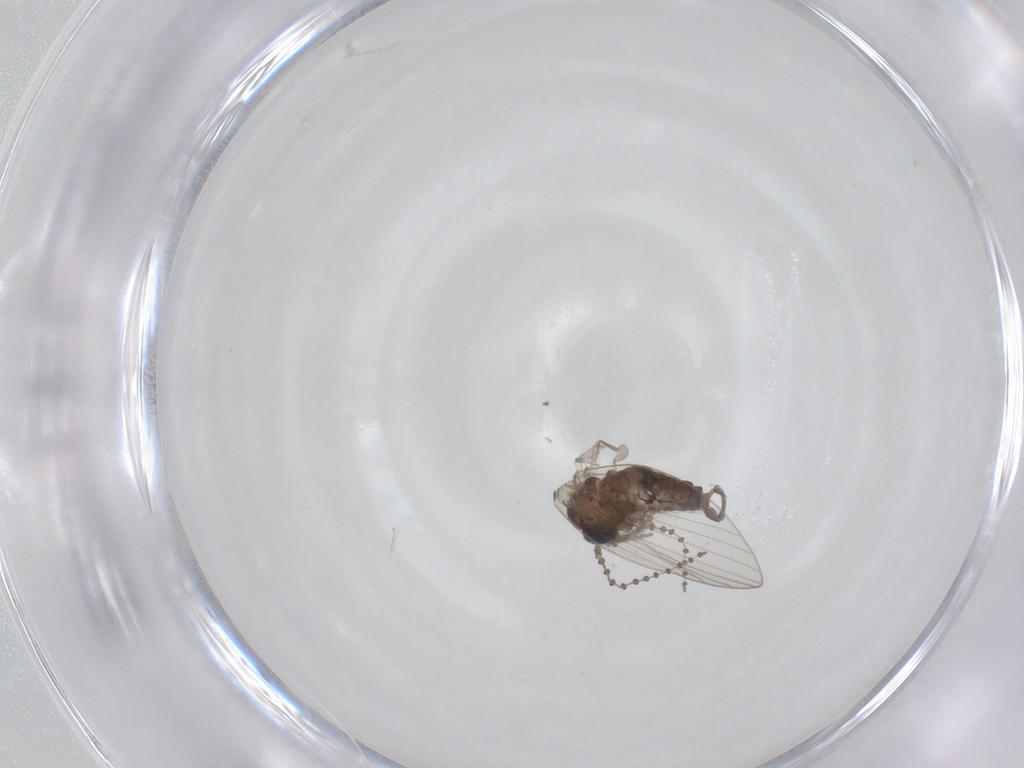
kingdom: Animalia
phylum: Arthropoda
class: Insecta
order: Diptera
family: Psychodidae
